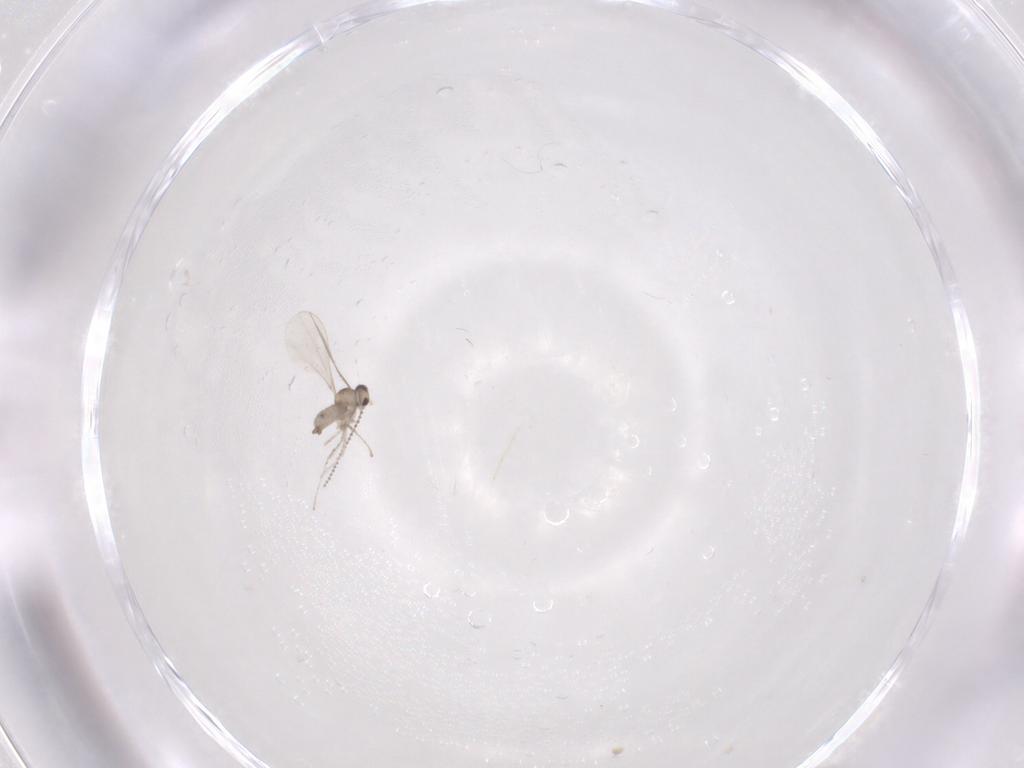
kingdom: Animalia
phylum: Arthropoda
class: Insecta
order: Diptera
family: Cecidomyiidae
